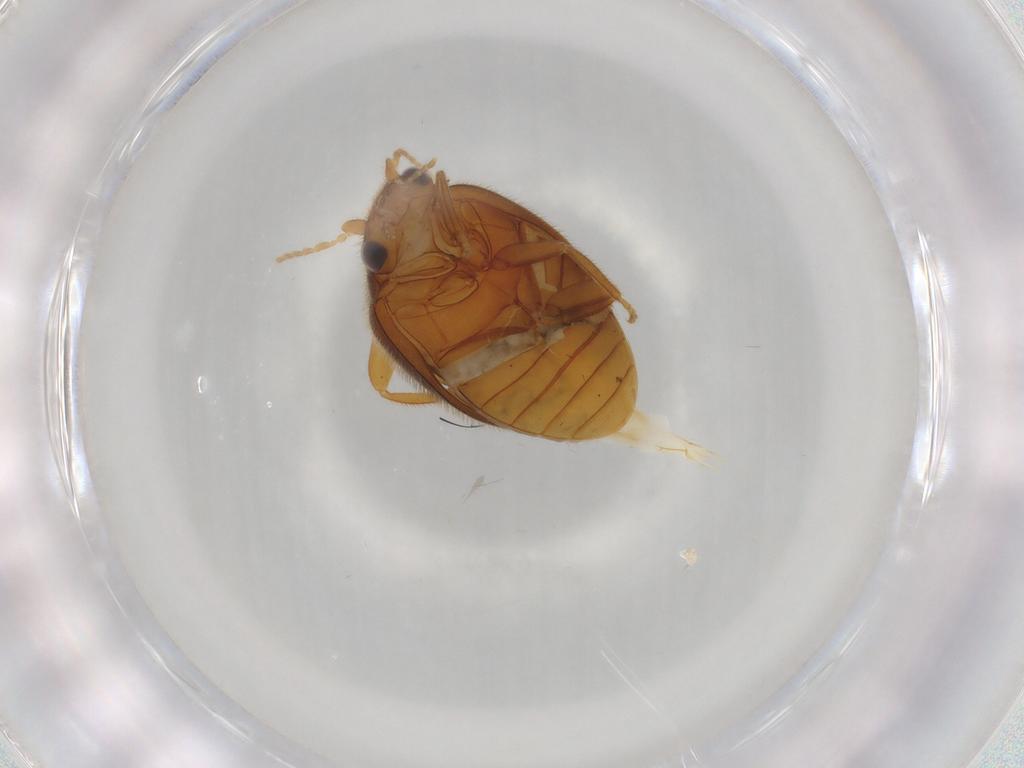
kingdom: Animalia
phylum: Arthropoda
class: Insecta
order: Coleoptera
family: Scirtidae
